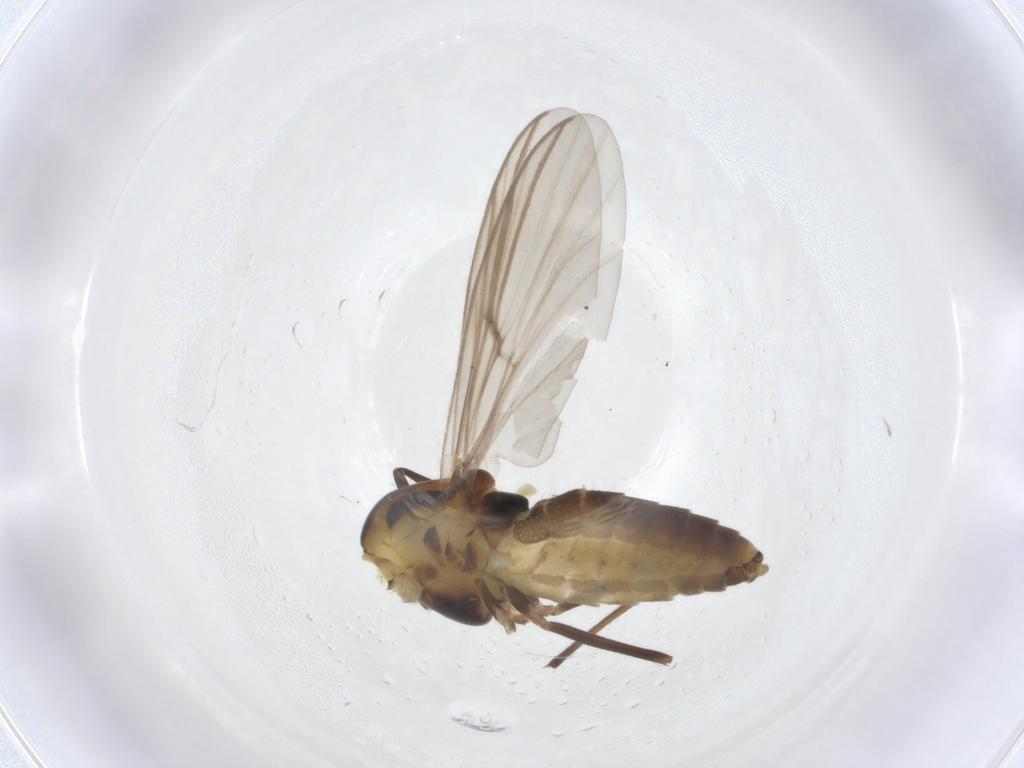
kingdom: Animalia
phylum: Arthropoda
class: Insecta
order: Diptera
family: Chironomidae
